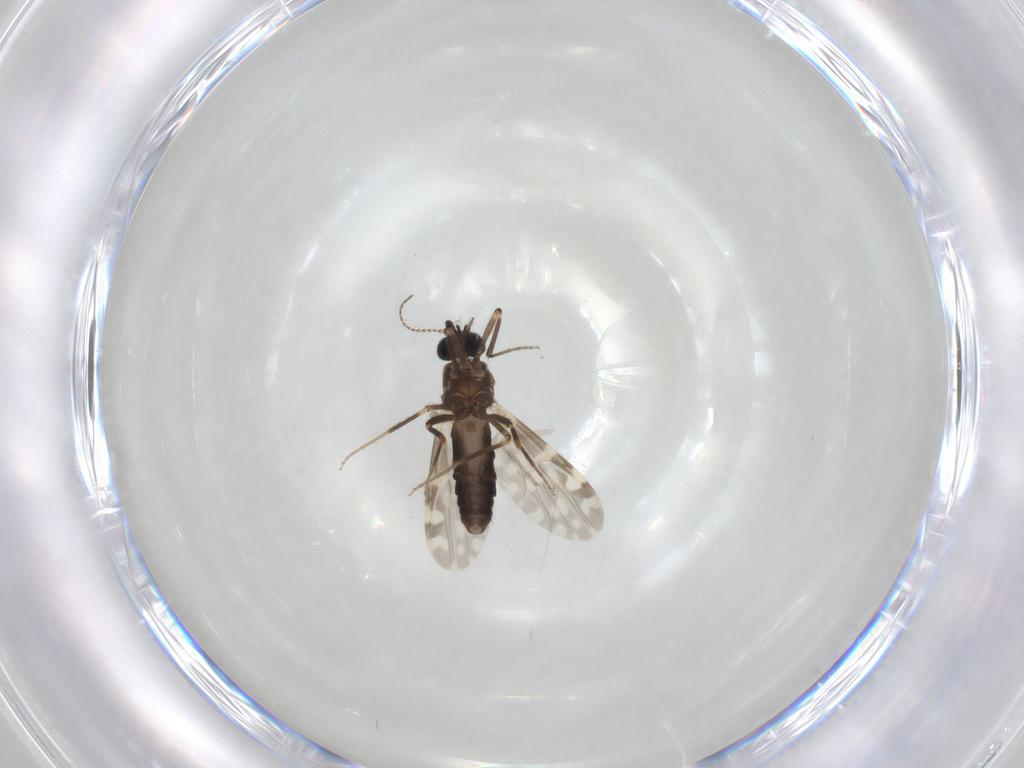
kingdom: Animalia
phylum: Arthropoda
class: Insecta
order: Diptera
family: Ceratopogonidae
